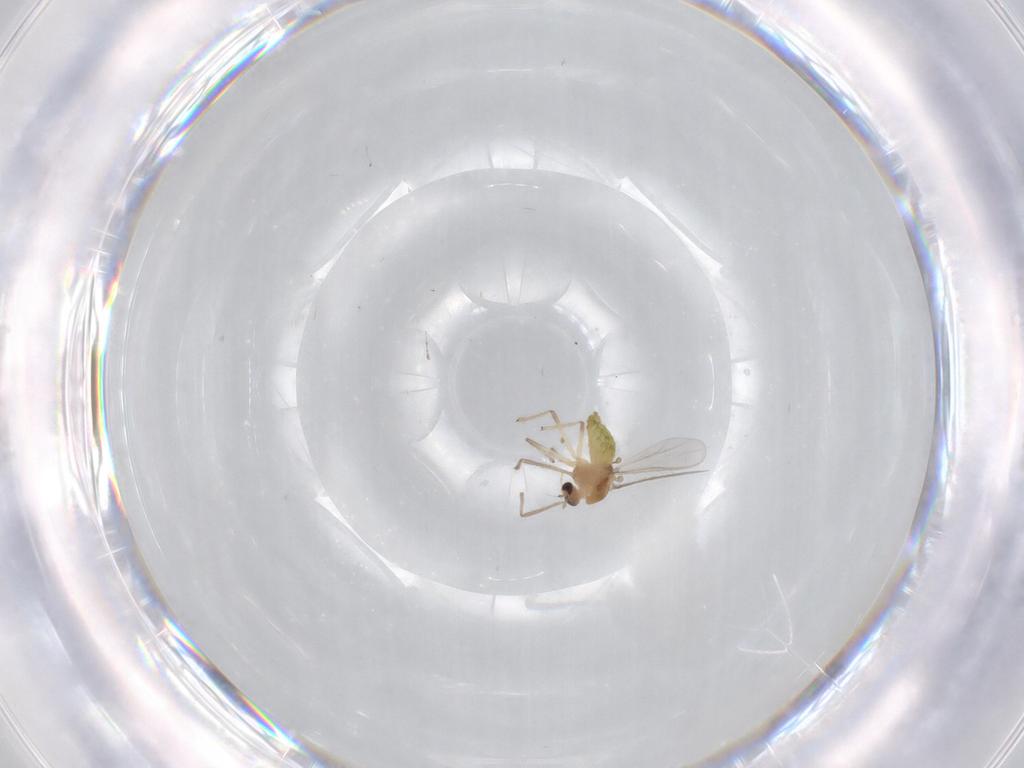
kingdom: Animalia
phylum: Arthropoda
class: Insecta
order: Diptera
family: Chironomidae
